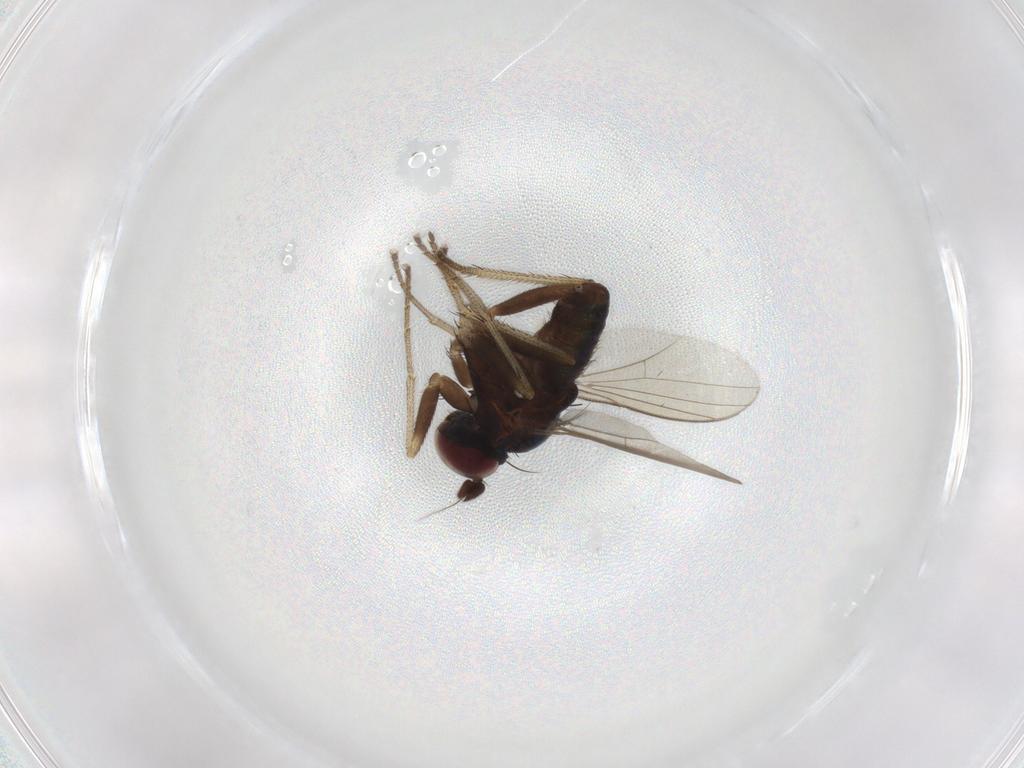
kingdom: Animalia
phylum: Arthropoda
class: Insecta
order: Diptera
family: Dolichopodidae
